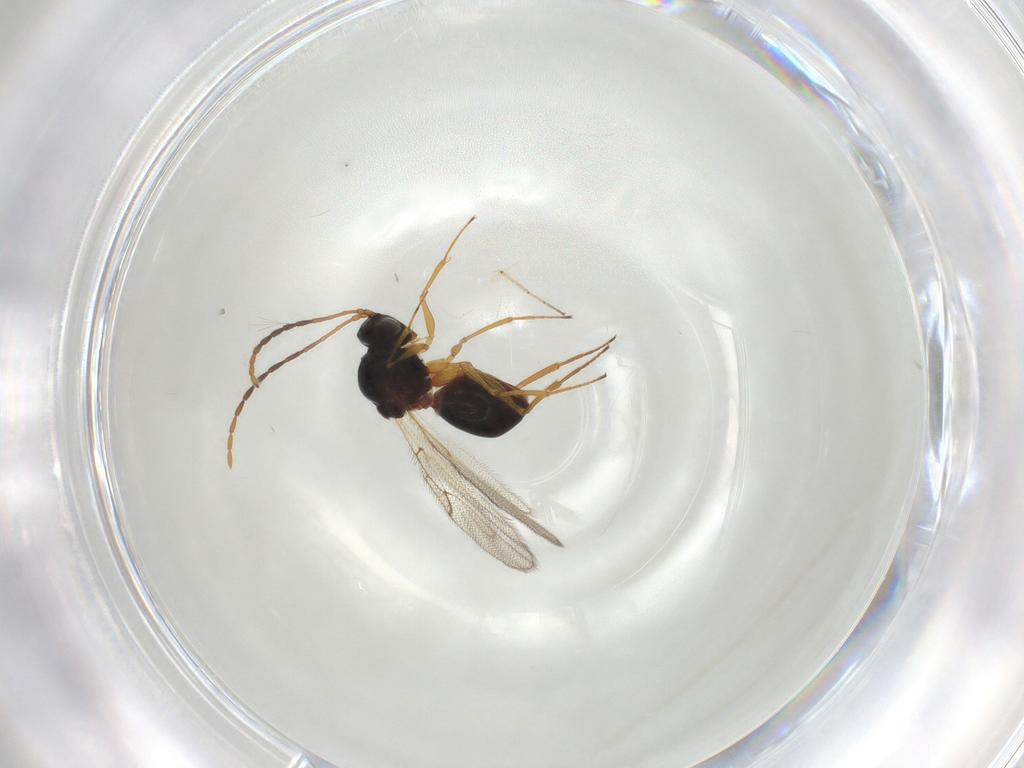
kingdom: Animalia
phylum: Arthropoda
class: Insecta
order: Hymenoptera
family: Figitidae
